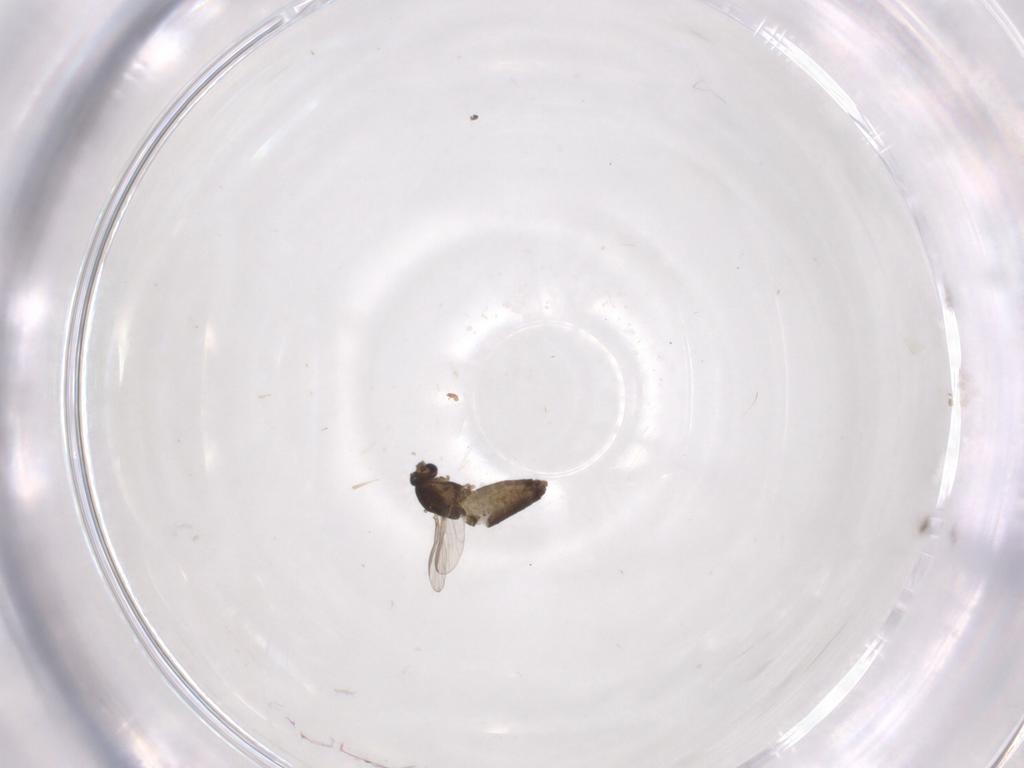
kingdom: Animalia
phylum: Arthropoda
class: Insecta
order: Diptera
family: Chironomidae
